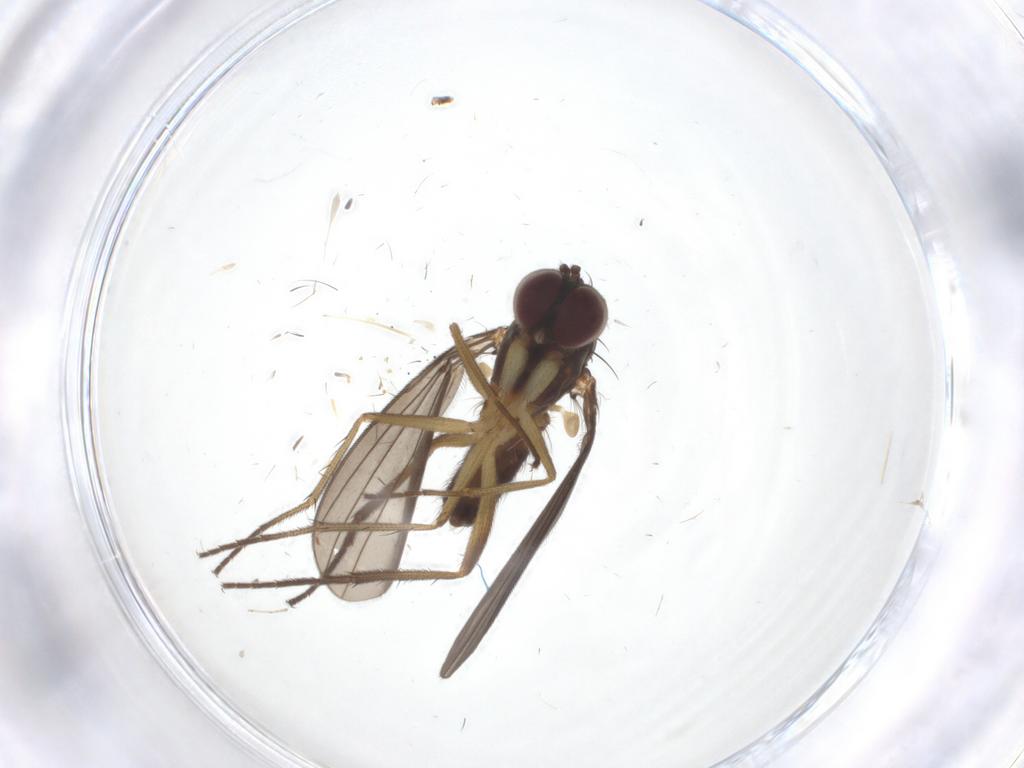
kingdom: Animalia
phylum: Arthropoda
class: Insecta
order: Diptera
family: Dolichopodidae
